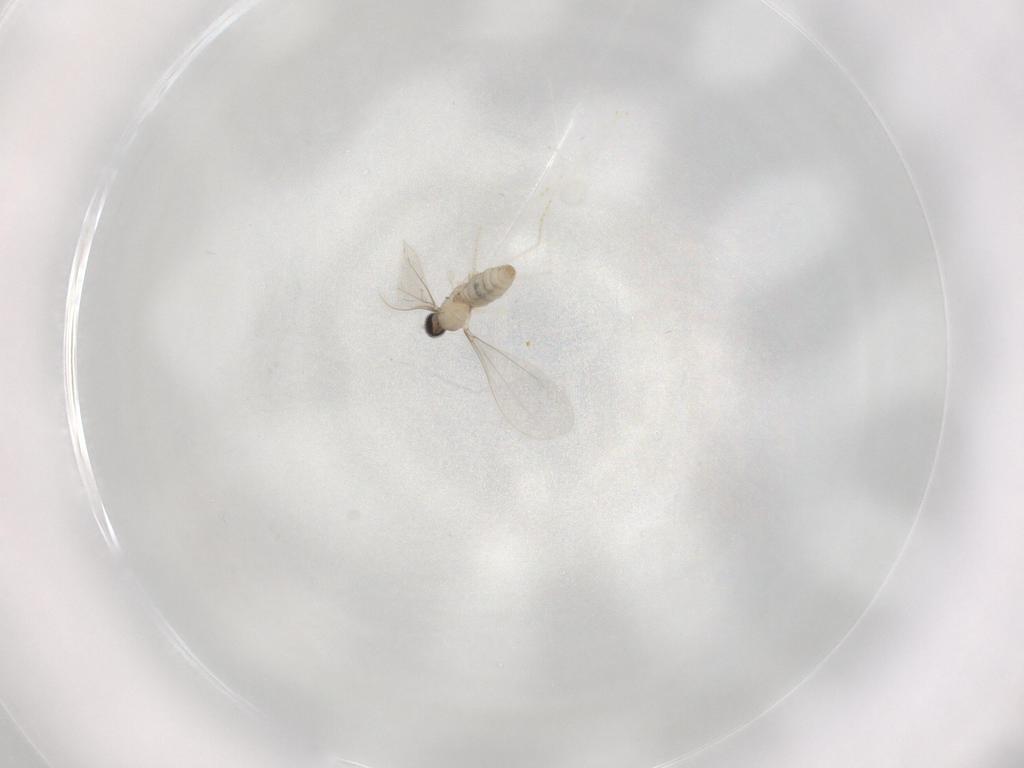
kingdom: Animalia
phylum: Arthropoda
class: Insecta
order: Diptera
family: Cecidomyiidae
